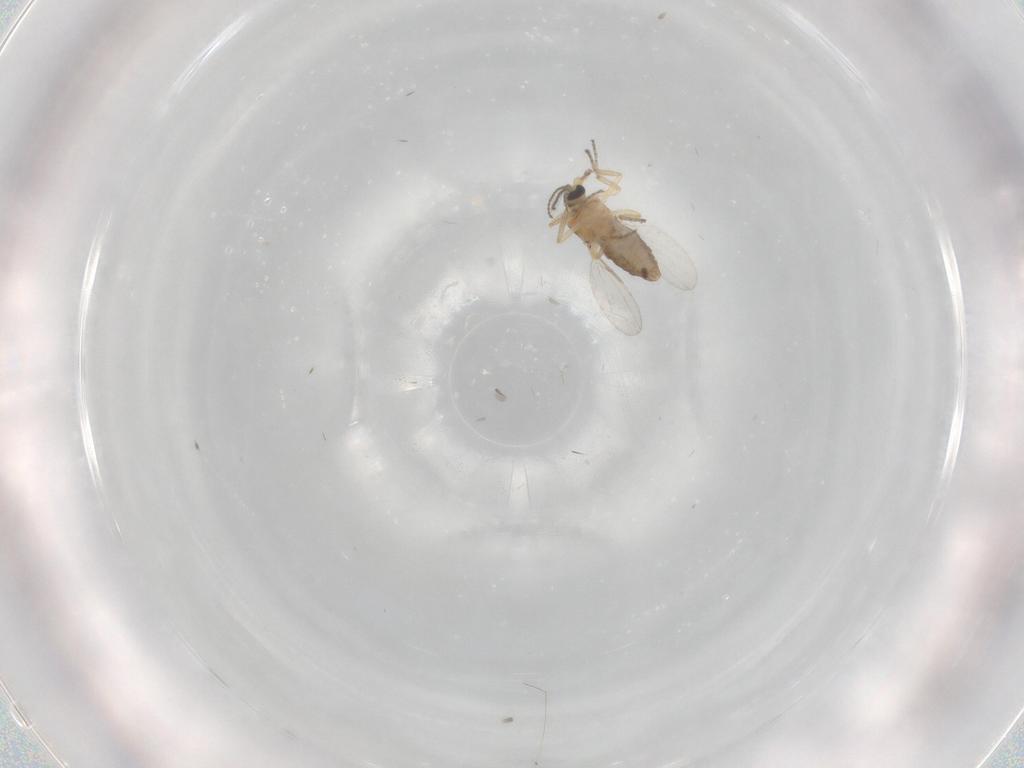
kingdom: Animalia
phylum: Arthropoda
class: Insecta
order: Diptera
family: Ceratopogonidae
